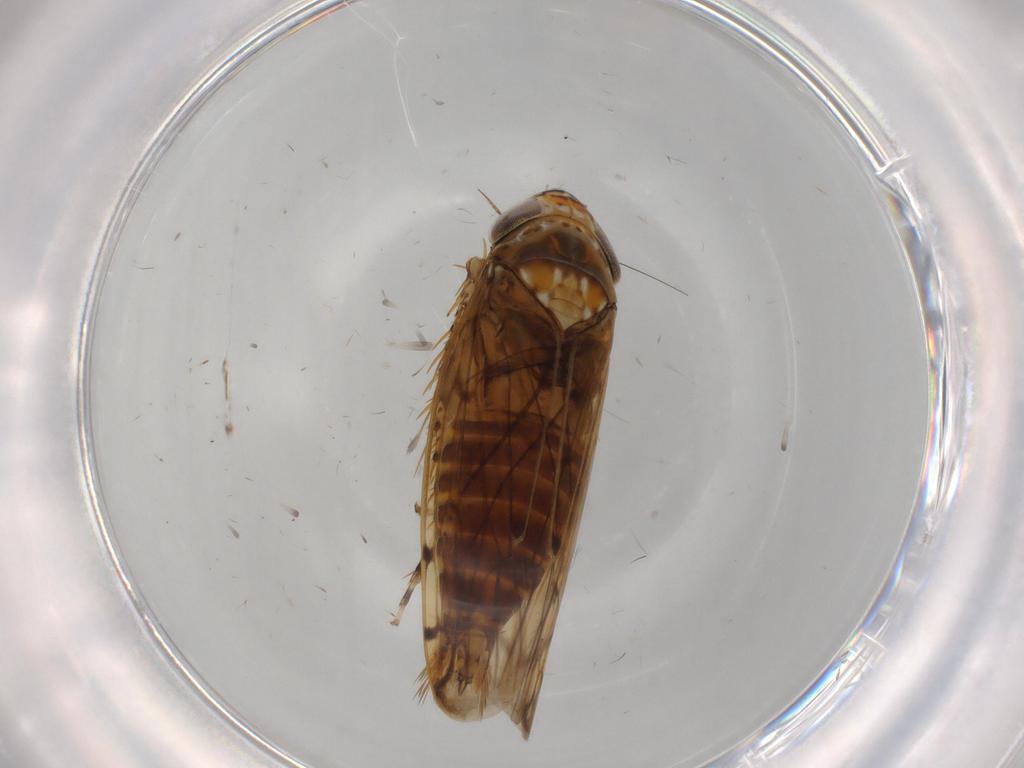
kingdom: Animalia
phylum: Arthropoda
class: Insecta
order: Hemiptera
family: Cicadellidae
